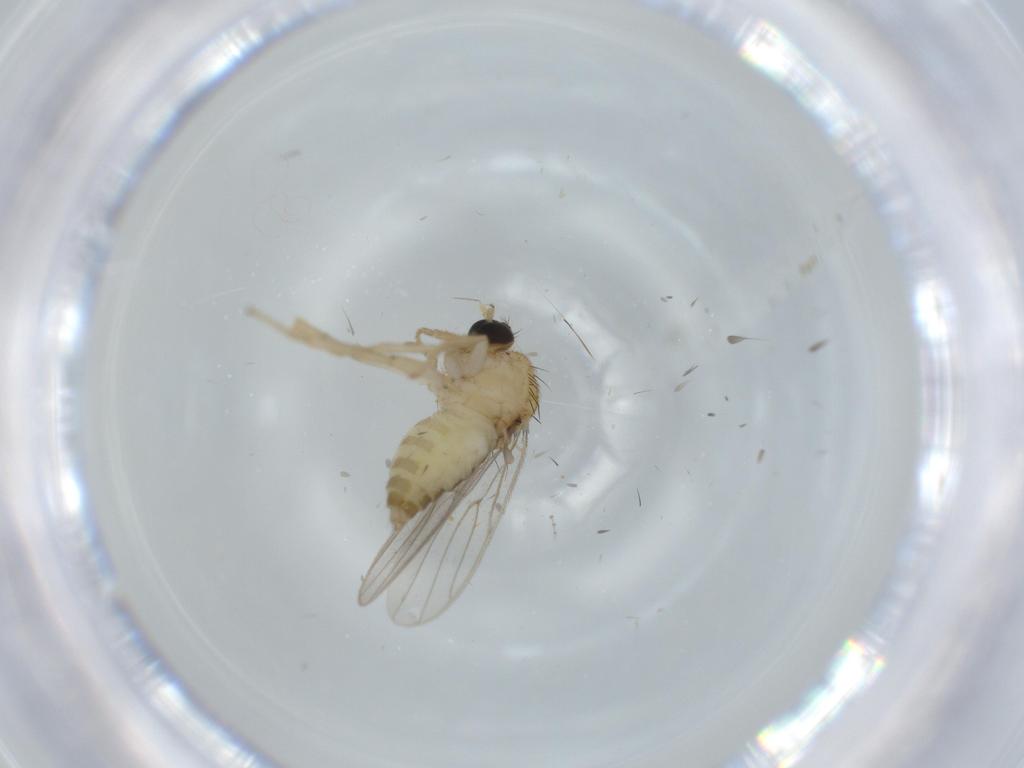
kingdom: Animalia
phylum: Arthropoda
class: Insecta
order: Diptera
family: Hybotidae
